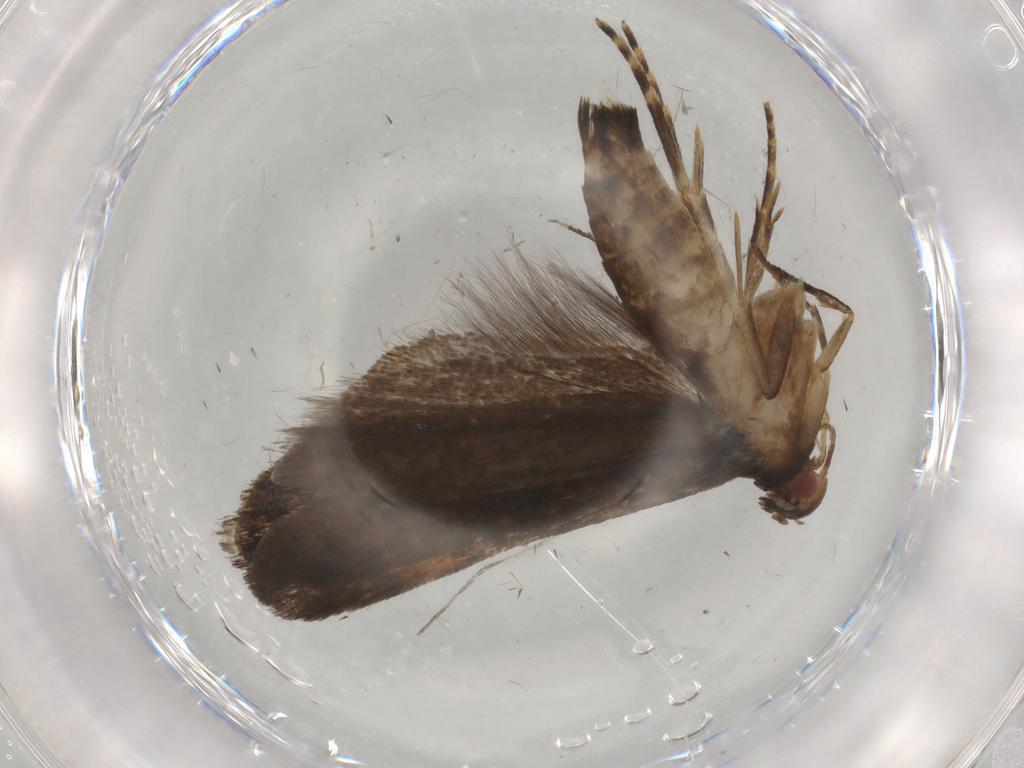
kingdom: Animalia
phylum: Arthropoda
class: Insecta
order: Lepidoptera
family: Gelechiidae
